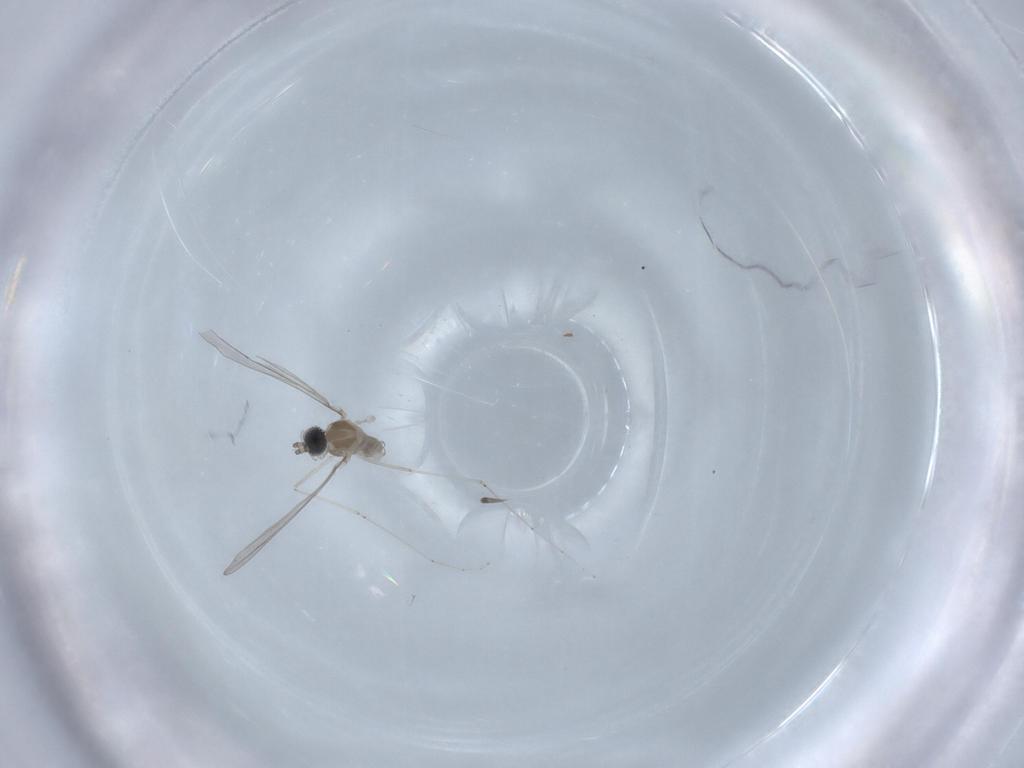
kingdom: Animalia
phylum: Arthropoda
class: Insecta
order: Diptera
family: Cecidomyiidae
